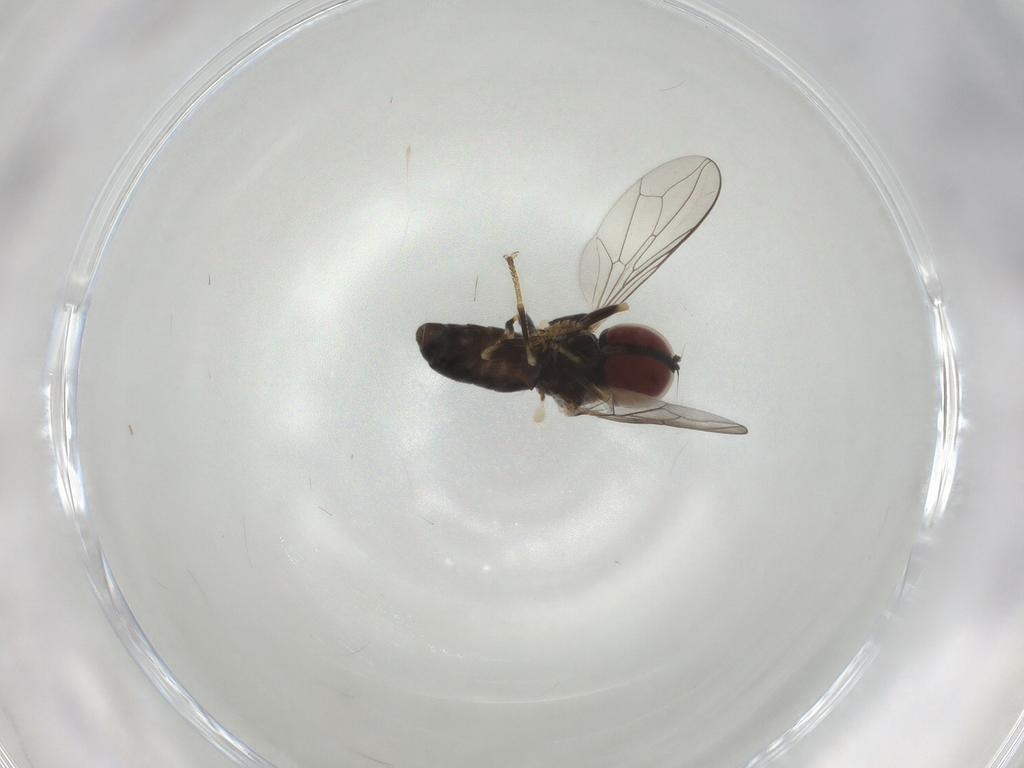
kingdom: Animalia
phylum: Arthropoda
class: Insecta
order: Diptera
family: Pipunculidae
